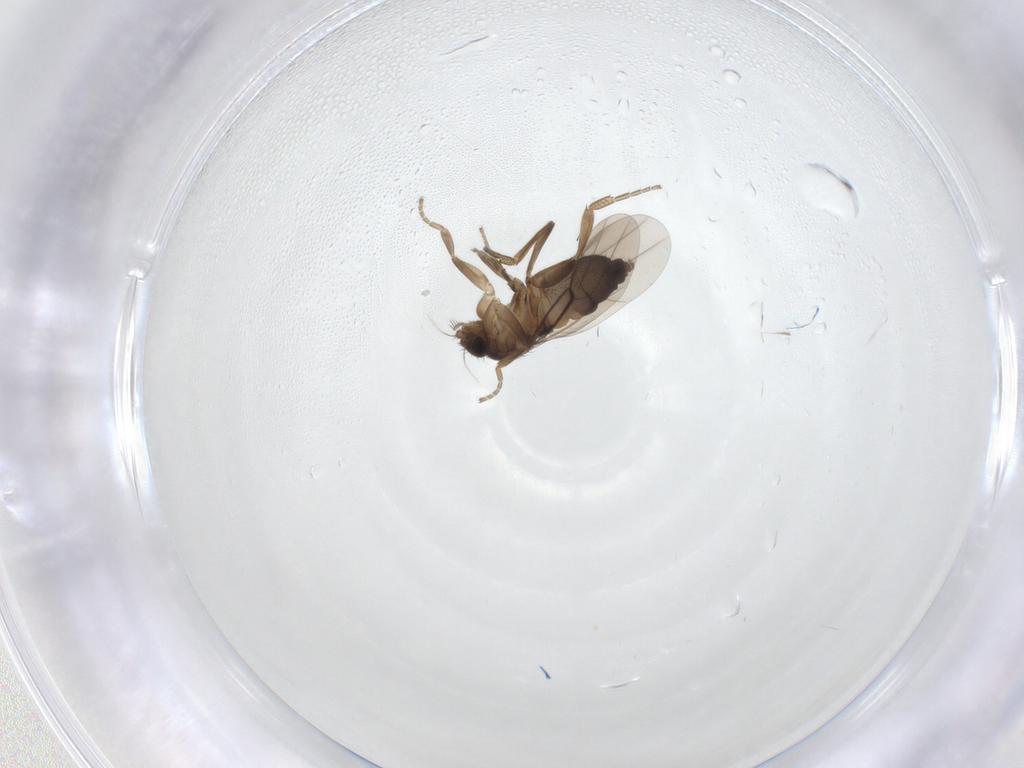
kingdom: Animalia
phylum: Arthropoda
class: Insecta
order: Diptera
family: Phoridae
